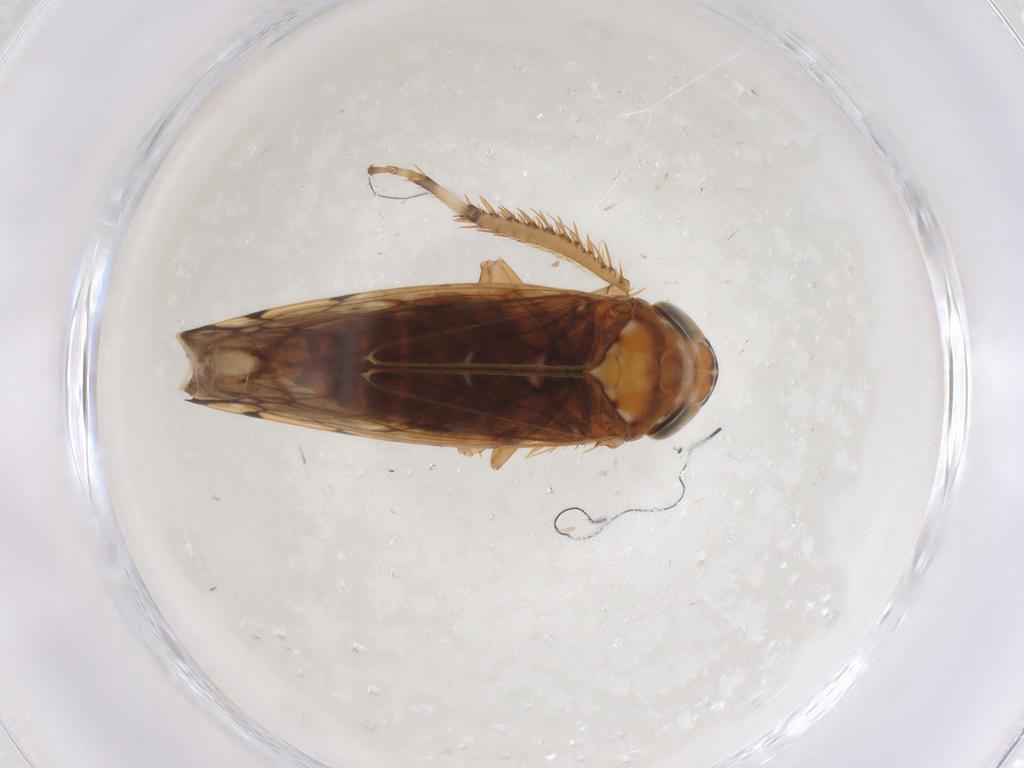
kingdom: Animalia
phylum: Arthropoda
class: Insecta
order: Hemiptera
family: Cicadellidae
